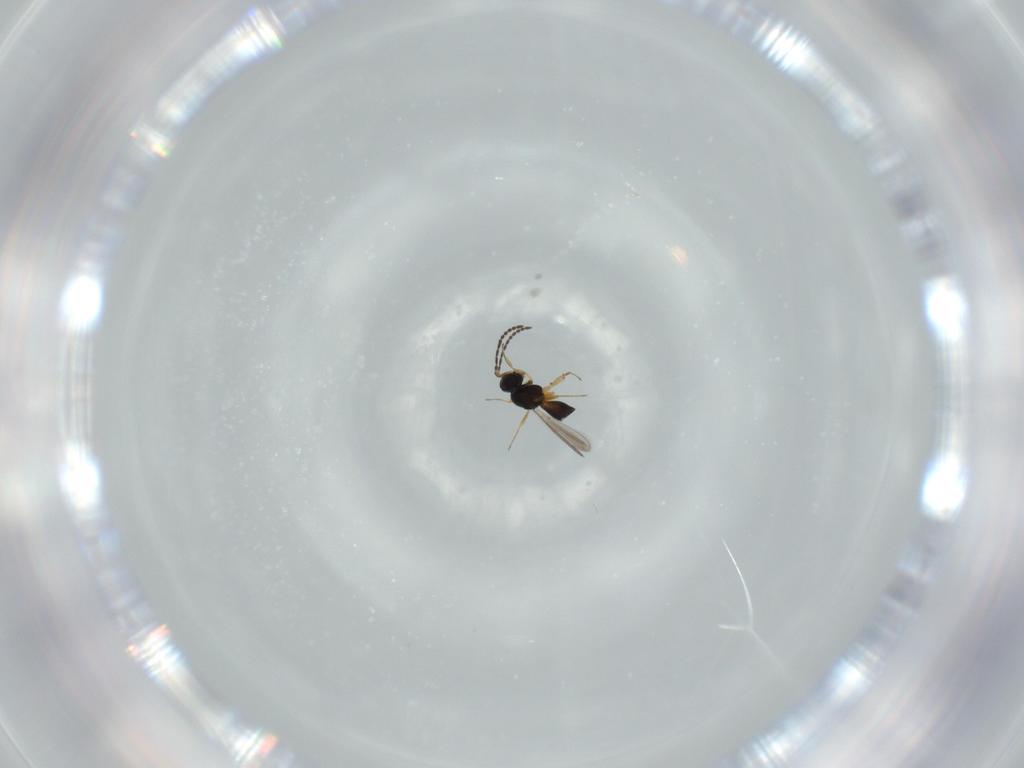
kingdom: Animalia
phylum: Arthropoda
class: Insecta
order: Hymenoptera
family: Scelionidae
